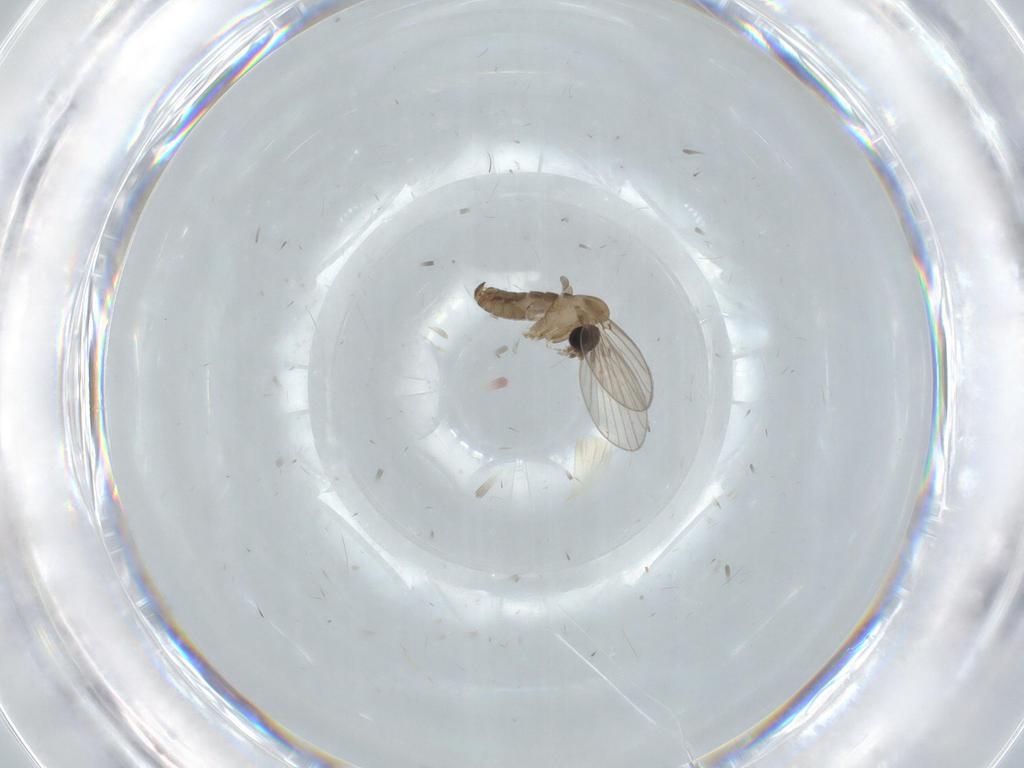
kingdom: Animalia
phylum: Arthropoda
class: Insecta
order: Diptera
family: Psychodidae
